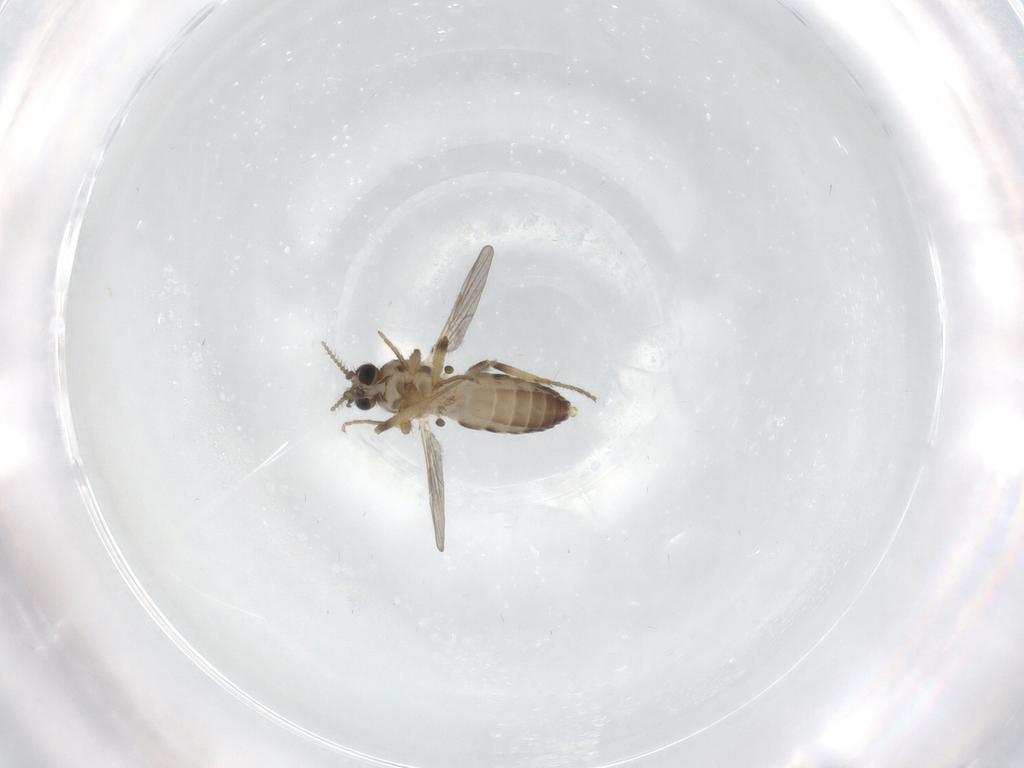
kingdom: Animalia
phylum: Arthropoda
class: Insecta
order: Diptera
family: Ceratopogonidae
